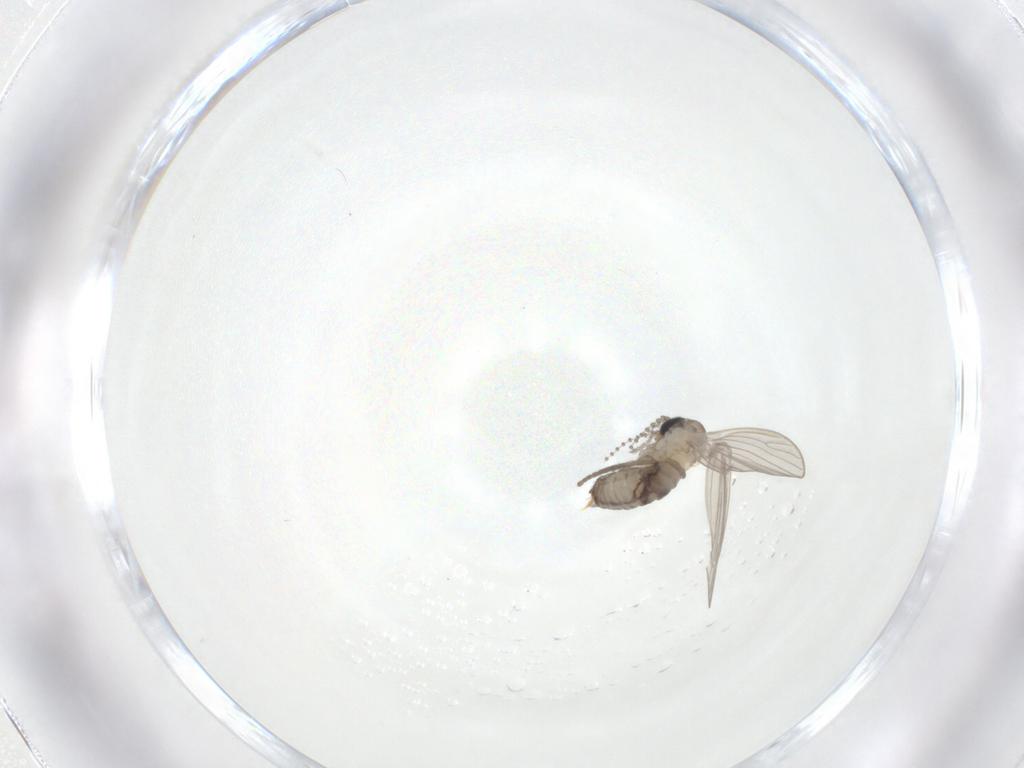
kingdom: Animalia
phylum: Arthropoda
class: Insecta
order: Diptera
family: Psychodidae
